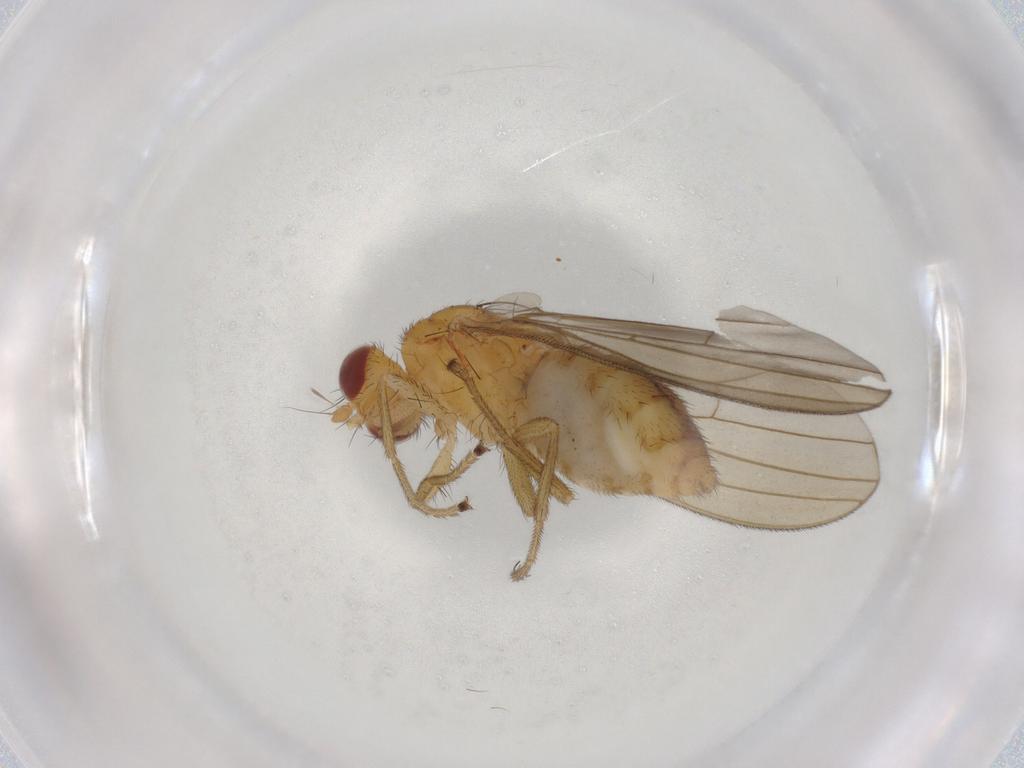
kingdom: Animalia
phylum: Arthropoda
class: Insecta
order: Diptera
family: Natalimyzidae
